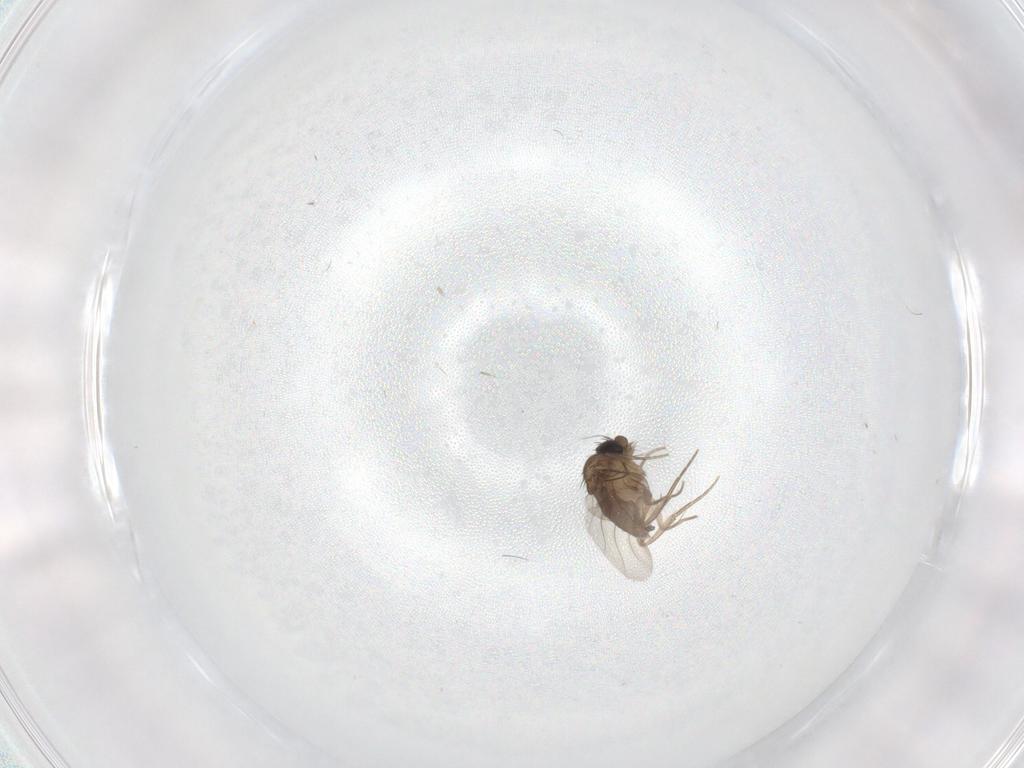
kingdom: Animalia
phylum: Arthropoda
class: Insecta
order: Diptera
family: Phoridae
